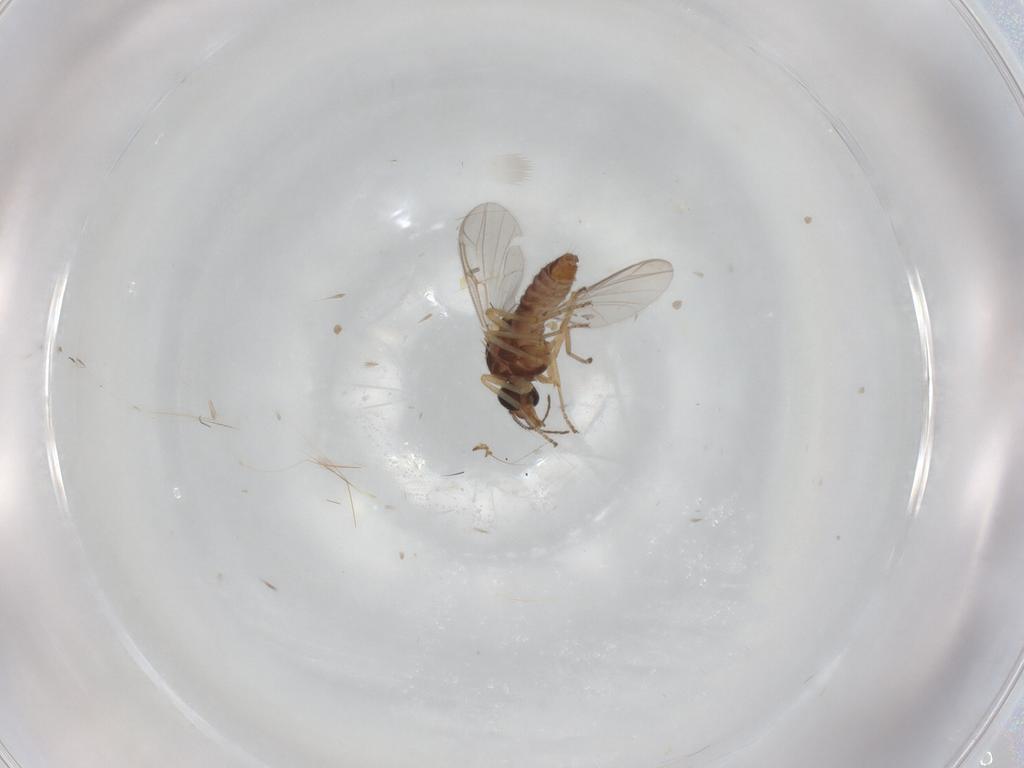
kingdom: Animalia
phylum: Arthropoda
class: Insecta
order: Diptera
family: Ceratopogonidae
